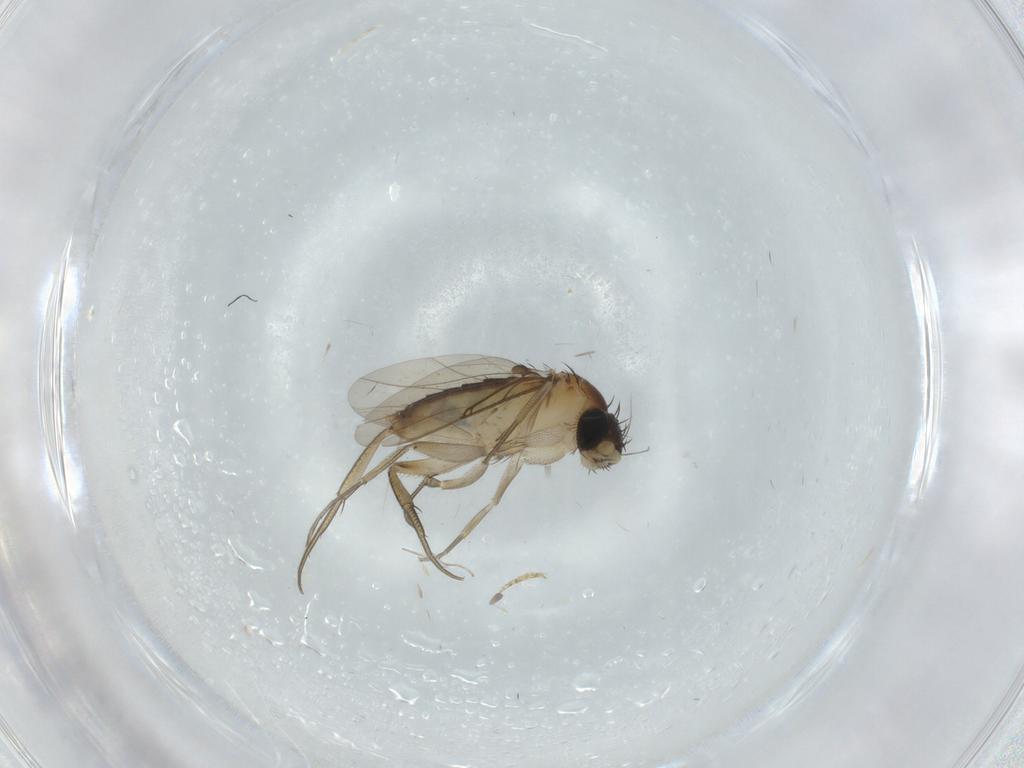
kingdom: Animalia
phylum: Arthropoda
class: Insecta
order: Diptera
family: Phoridae
